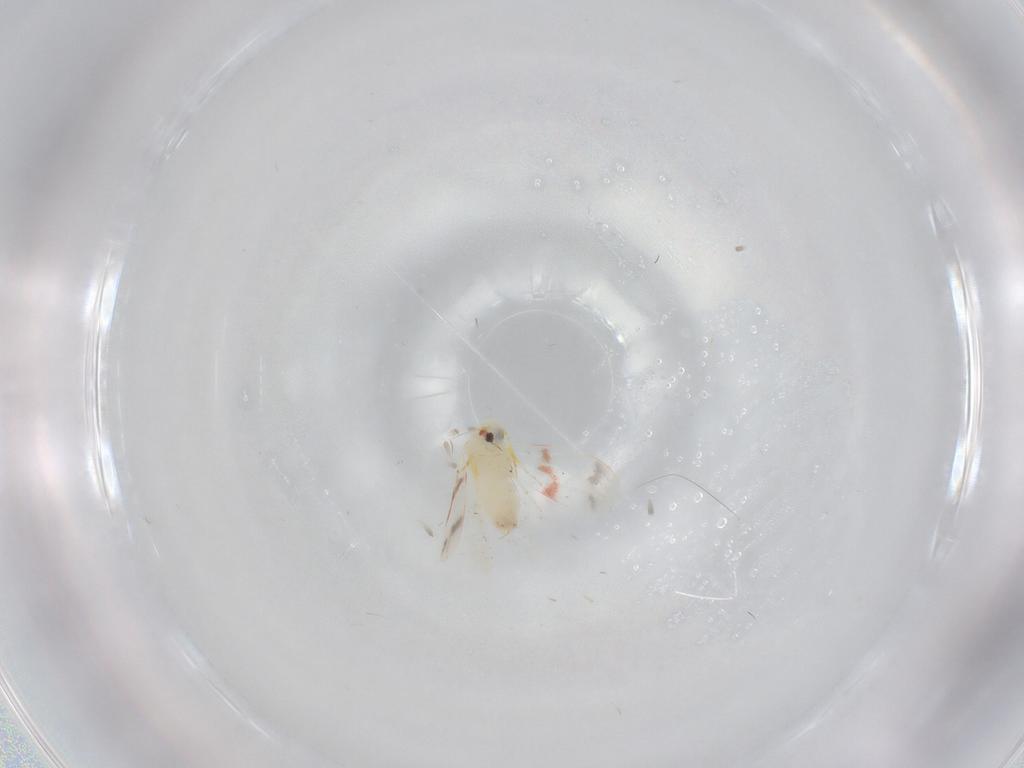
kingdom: Animalia
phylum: Arthropoda
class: Insecta
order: Hemiptera
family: Aleyrodidae
